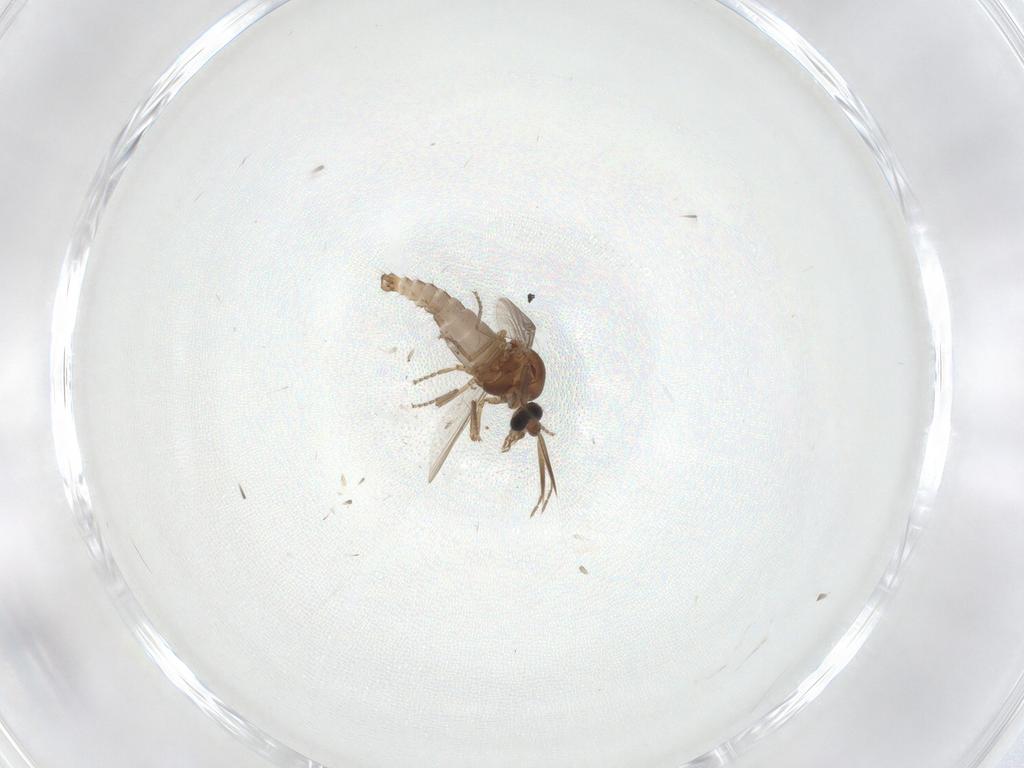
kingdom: Animalia
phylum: Arthropoda
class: Insecta
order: Diptera
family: Ceratopogonidae
